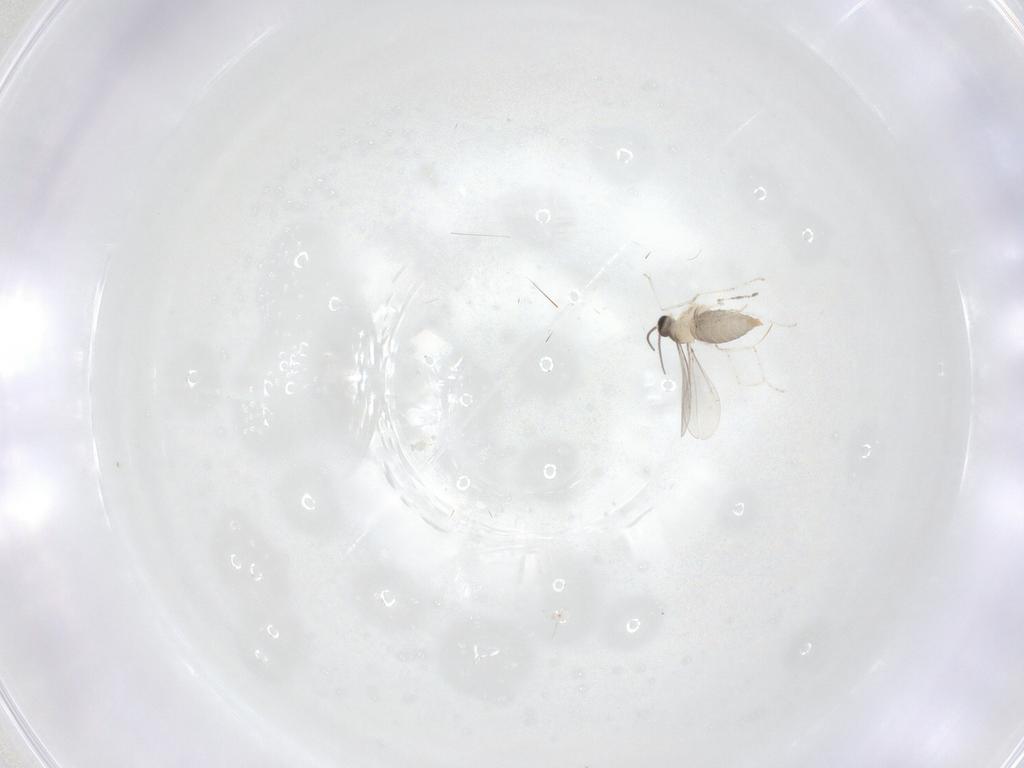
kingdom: Animalia
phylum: Arthropoda
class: Insecta
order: Diptera
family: Cecidomyiidae
